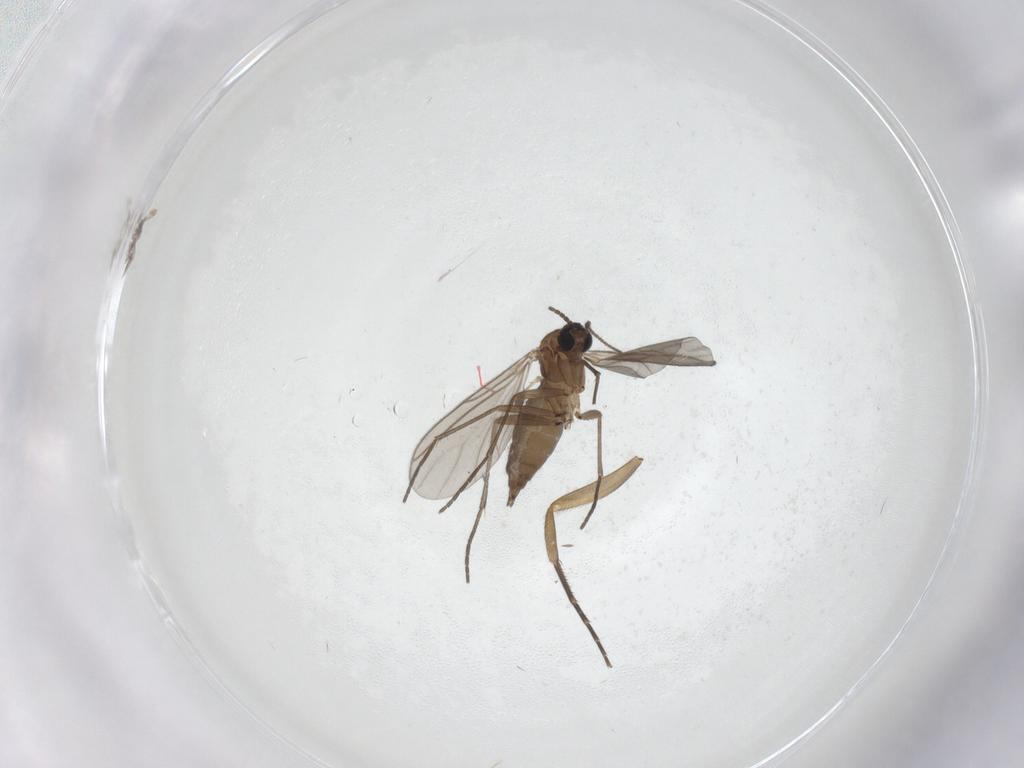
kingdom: Animalia
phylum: Arthropoda
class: Insecta
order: Diptera
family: Sciaridae
